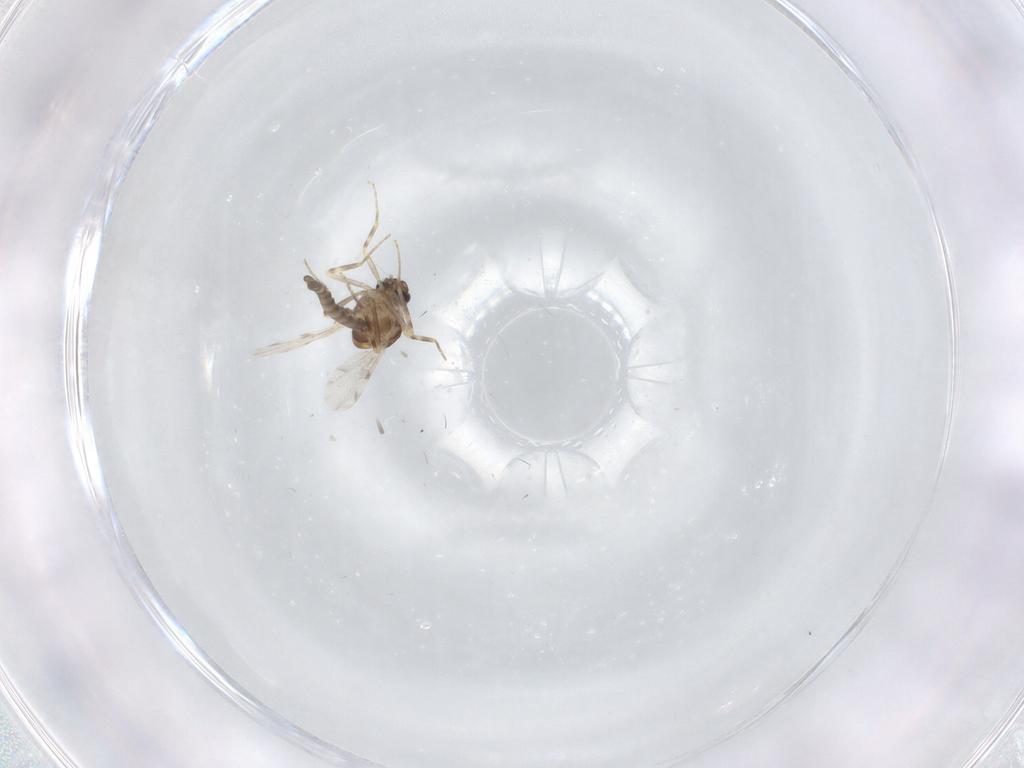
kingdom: Animalia
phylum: Arthropoda
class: Insecta
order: Diptera
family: Ceratopogonidae
